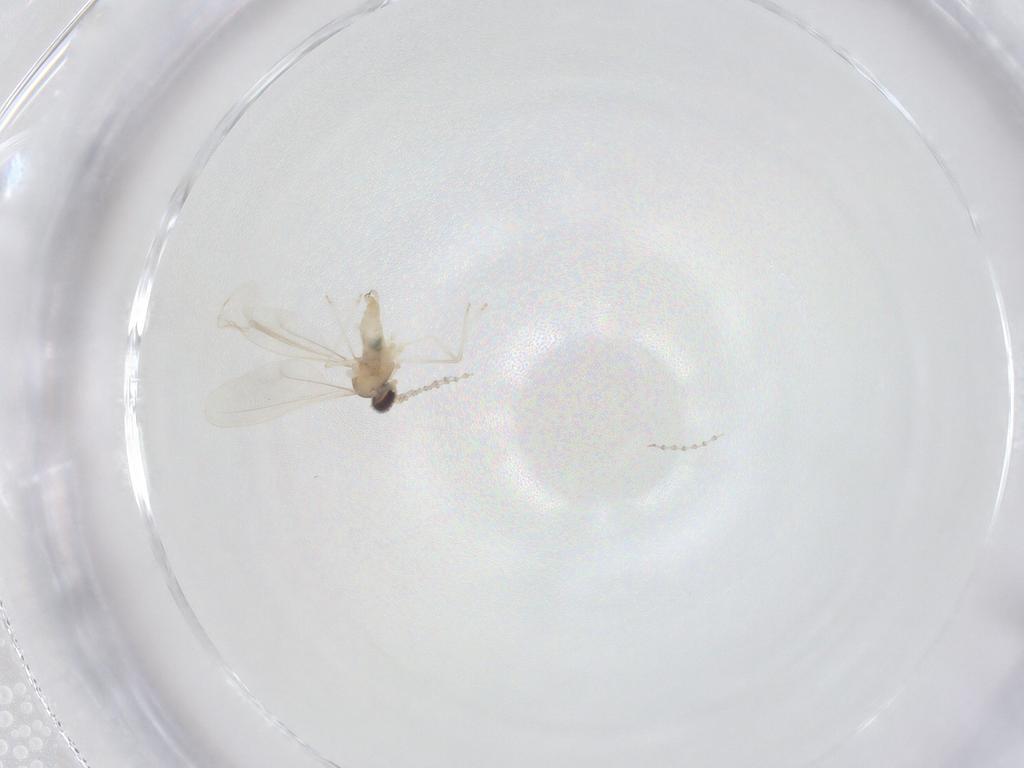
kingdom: Animalia
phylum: Arthropoda
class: Insecta
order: Diptera
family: Cecidomyiidae
